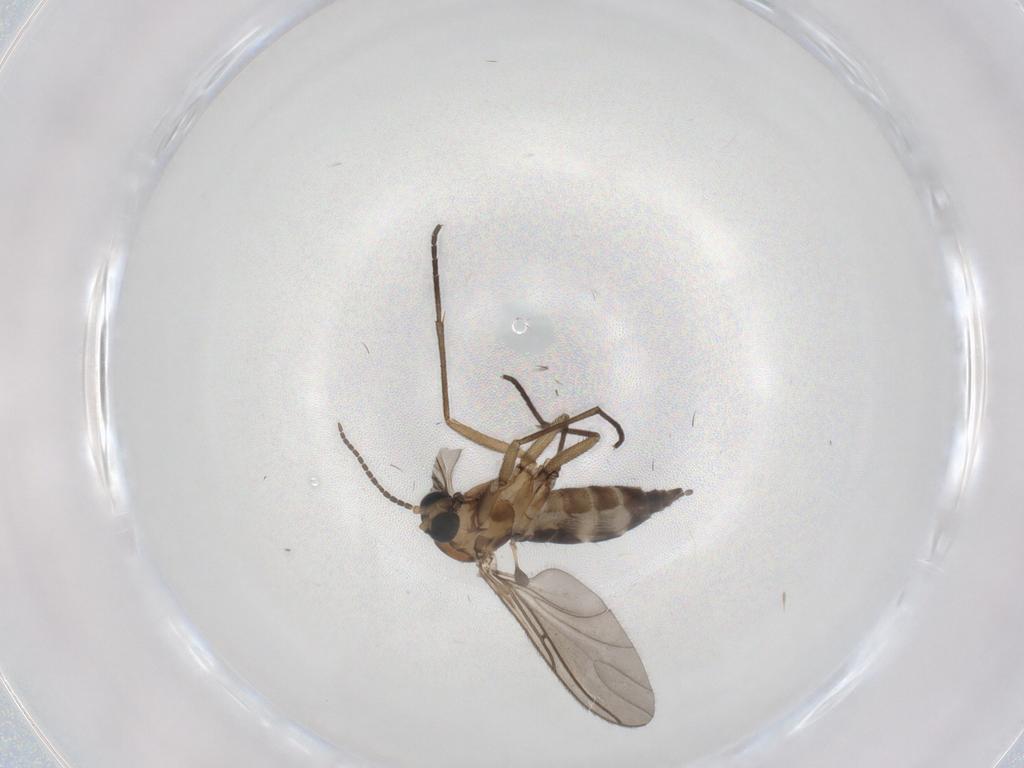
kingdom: Animalia
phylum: Arthropoda
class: Insecta
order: Diptera
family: Sciaridae
